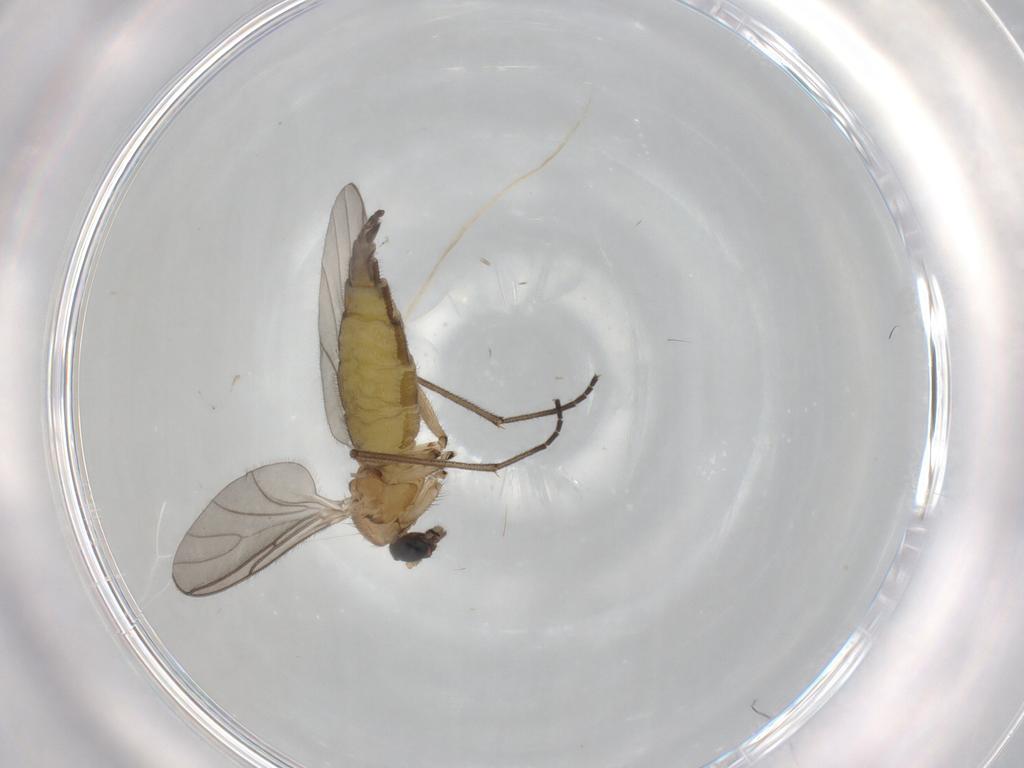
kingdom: Animalia
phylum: Arthropoda
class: Insecta
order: Diptera
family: Sciaridae
